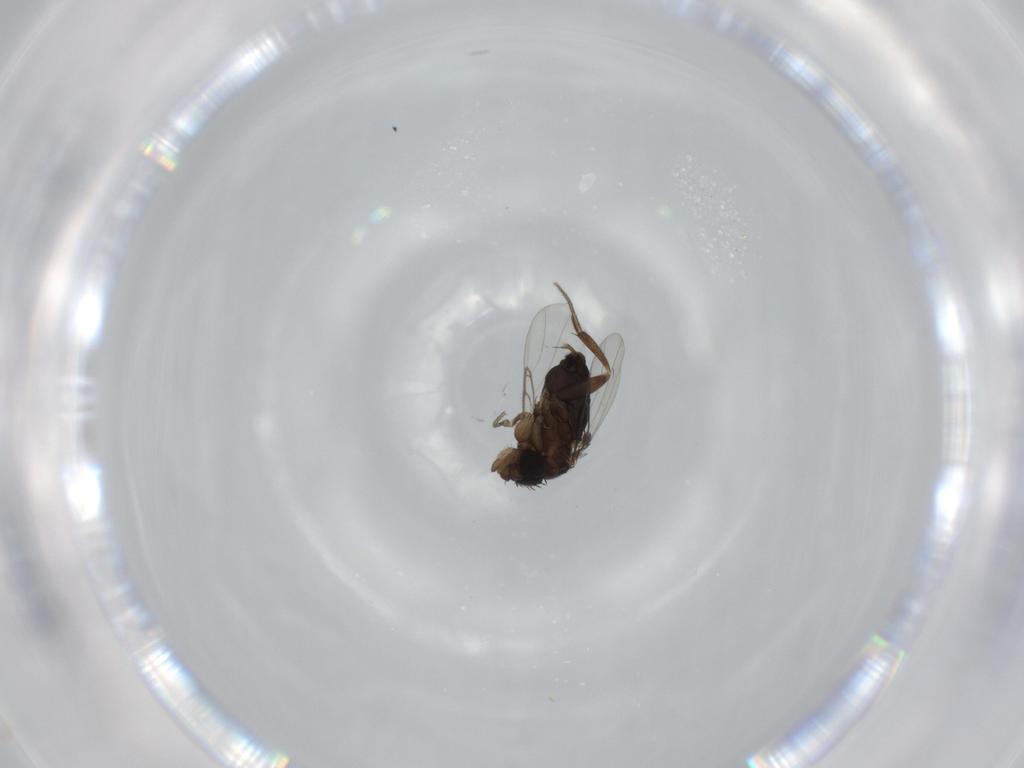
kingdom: Animalia
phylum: Arthropoda
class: Insecta
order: Diptera
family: Phoridae
